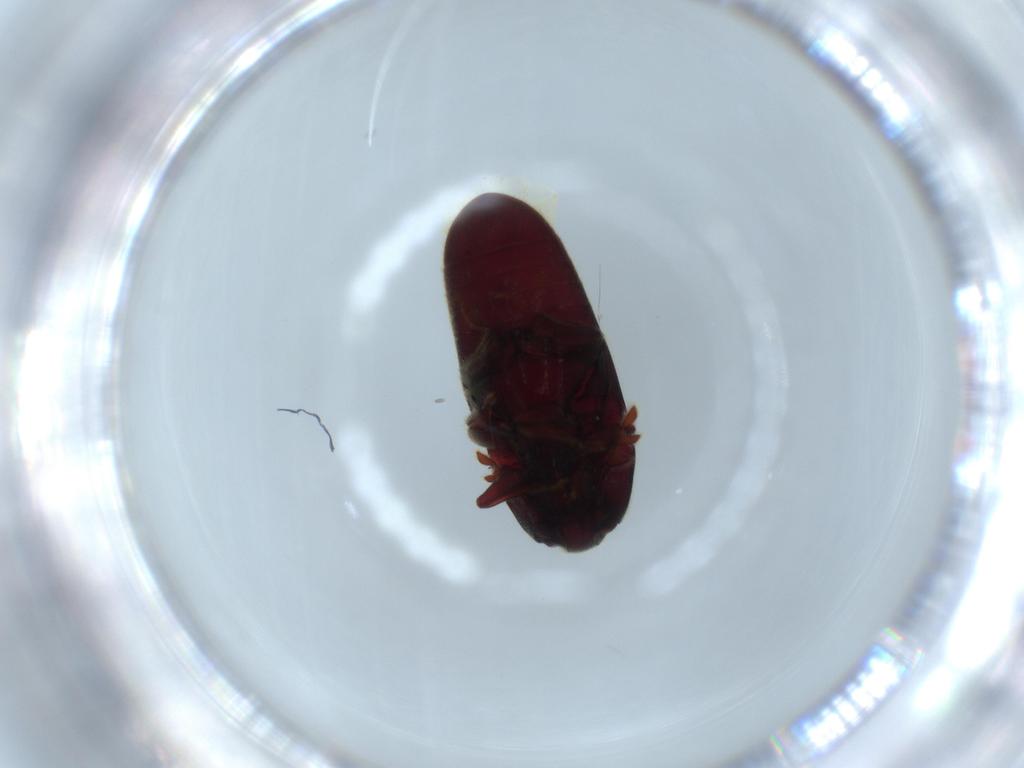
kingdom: Animalia
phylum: Arthropoda
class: Insecta
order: Coleoptera
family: Throscidae
